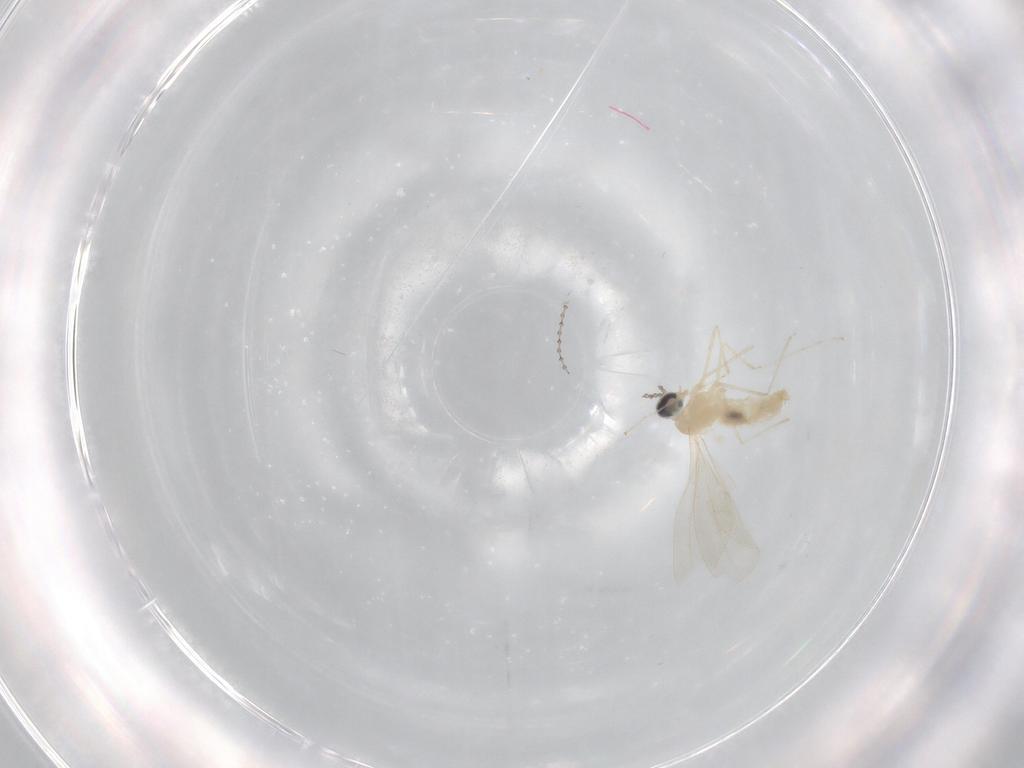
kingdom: Animalia
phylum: Arthropoda
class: Insecta
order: Diptera
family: Cecidomyiidae
